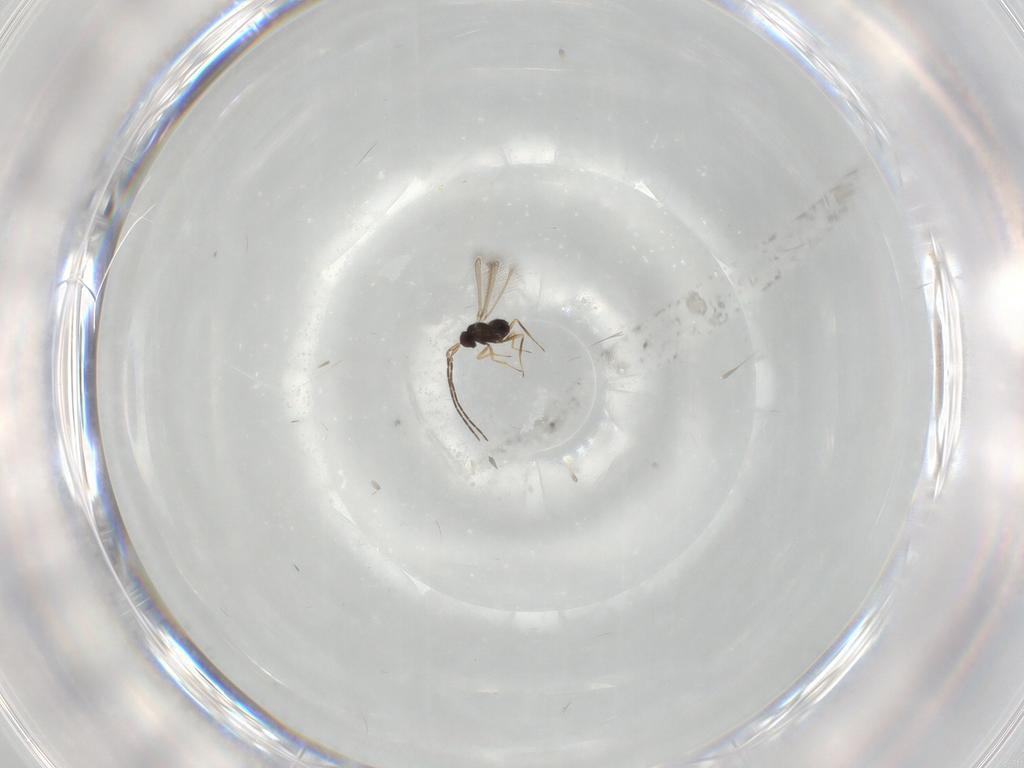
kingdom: Animalia
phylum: Arthropoda
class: Insecta
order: Hymenoptera
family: Mymaridae
